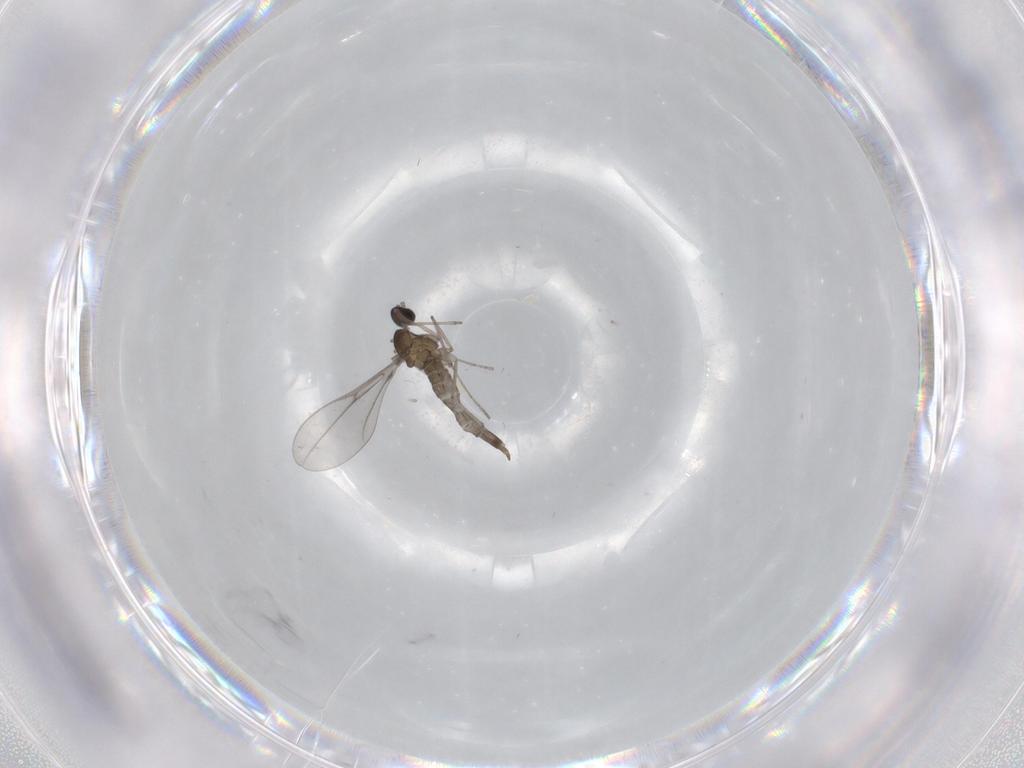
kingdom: Animalia
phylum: Arthropoda
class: Insecta
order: Diptera
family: Cecidomyiidae
